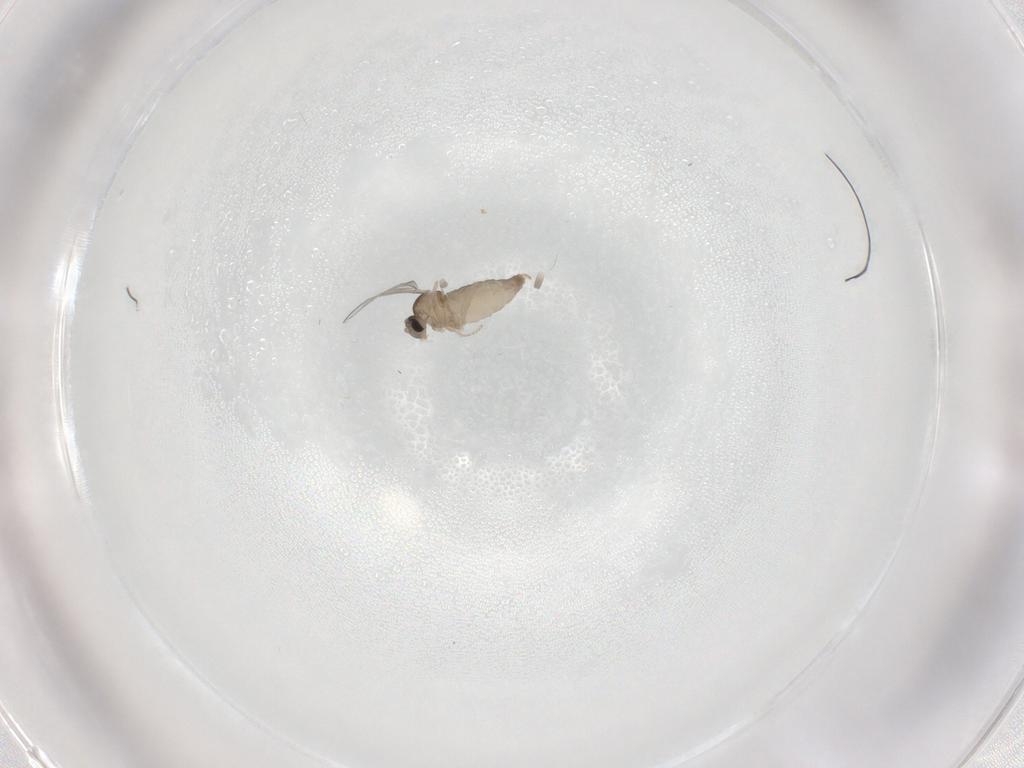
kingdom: Animalia
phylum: Arthropoda
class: Insecta
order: Diptera
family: Cecidomyiidae
